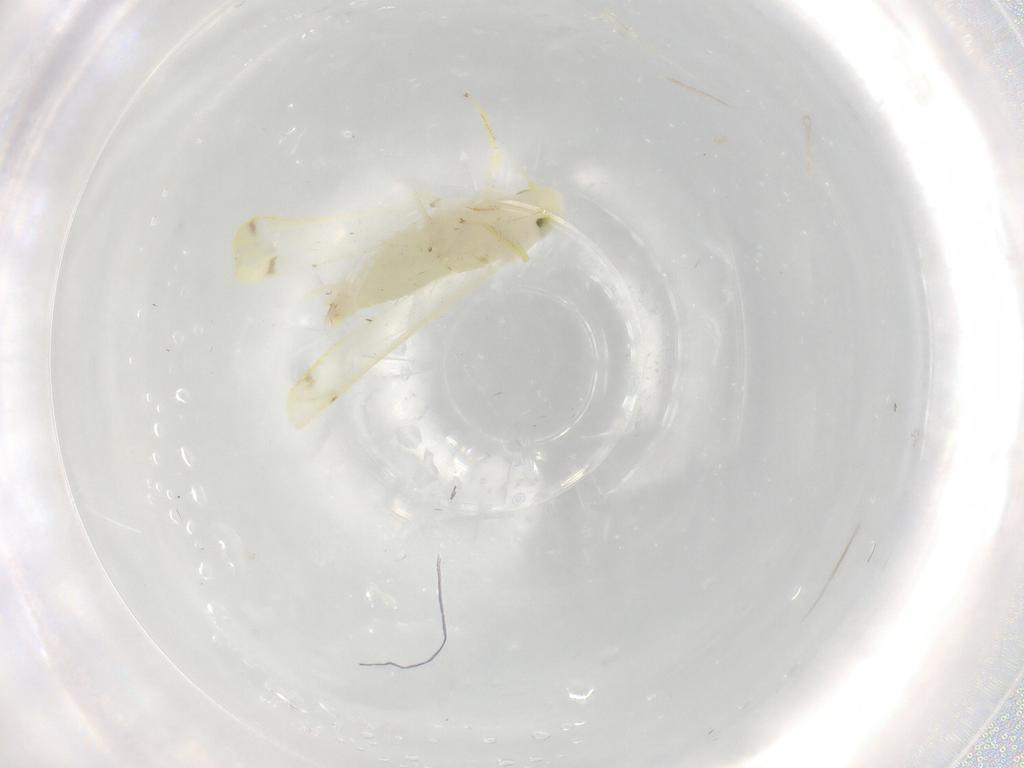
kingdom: Animalia
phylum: Arthropoda
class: Insecta
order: Hemiptera
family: Cicadellidae
